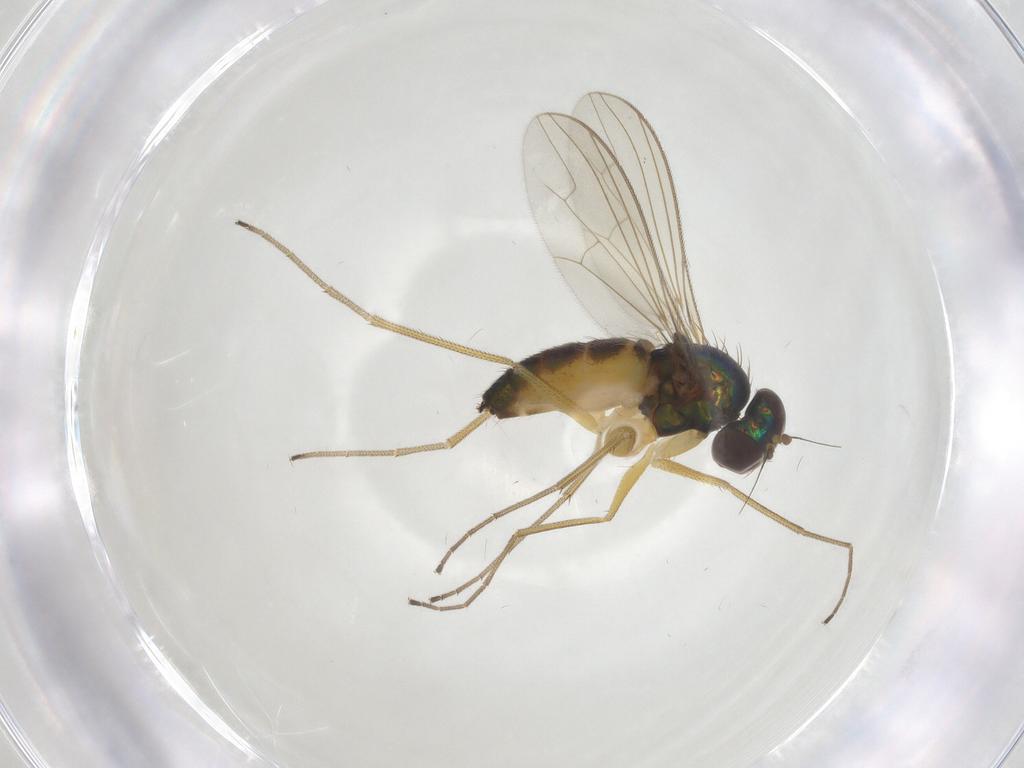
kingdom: Animalia
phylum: Arthropoda
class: Insecta
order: Diptera
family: Dolichopodidae
